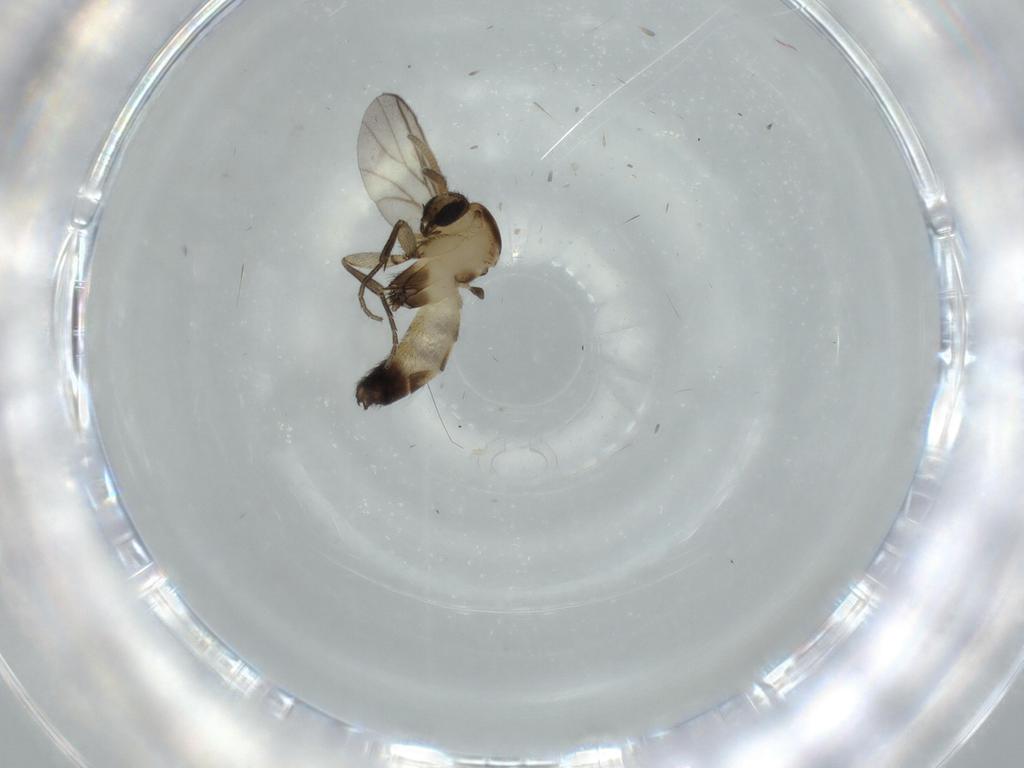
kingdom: Animalia
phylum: Arthropoda
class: Insecta
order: Diptera
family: Mycetophilidae
